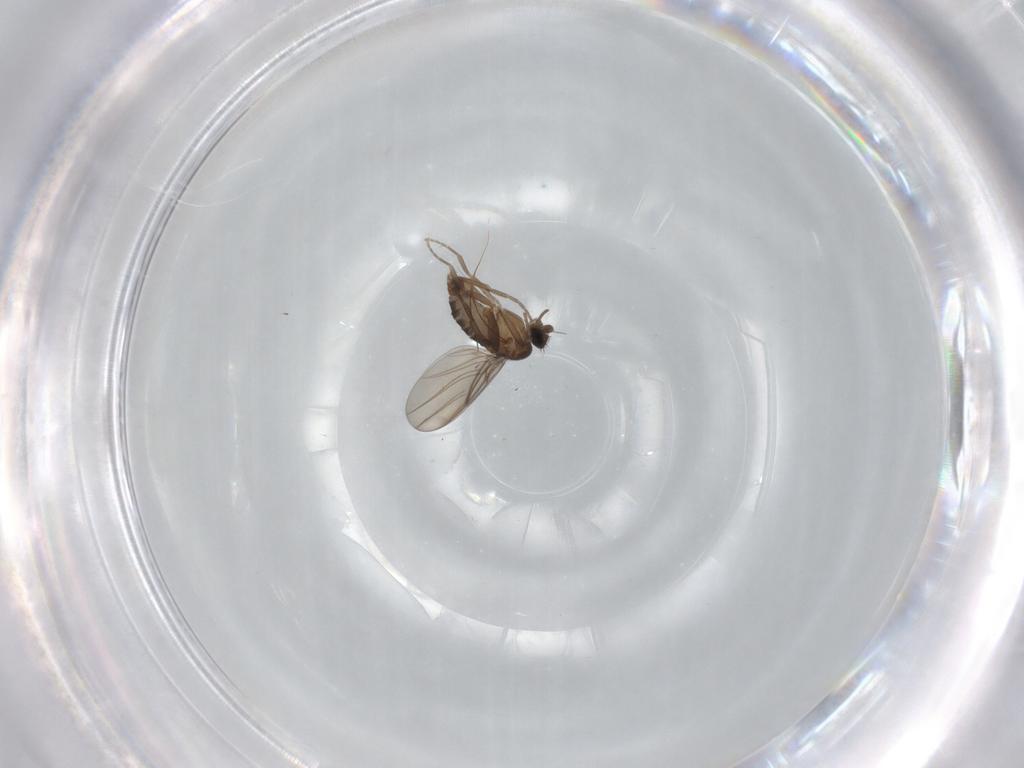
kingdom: Animalia
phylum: Arthropoda
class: Insecta
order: Diptera
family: Phoridae
